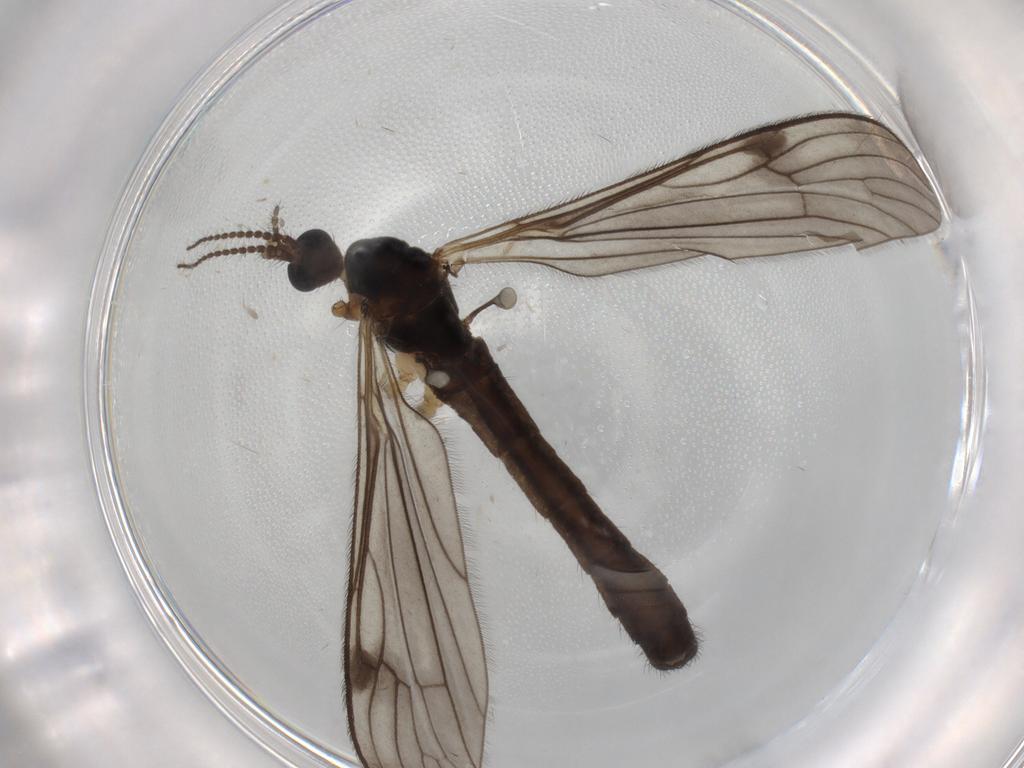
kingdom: Animalia
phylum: Arthropoda
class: Insecta
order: Diptera
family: Limoniidae
